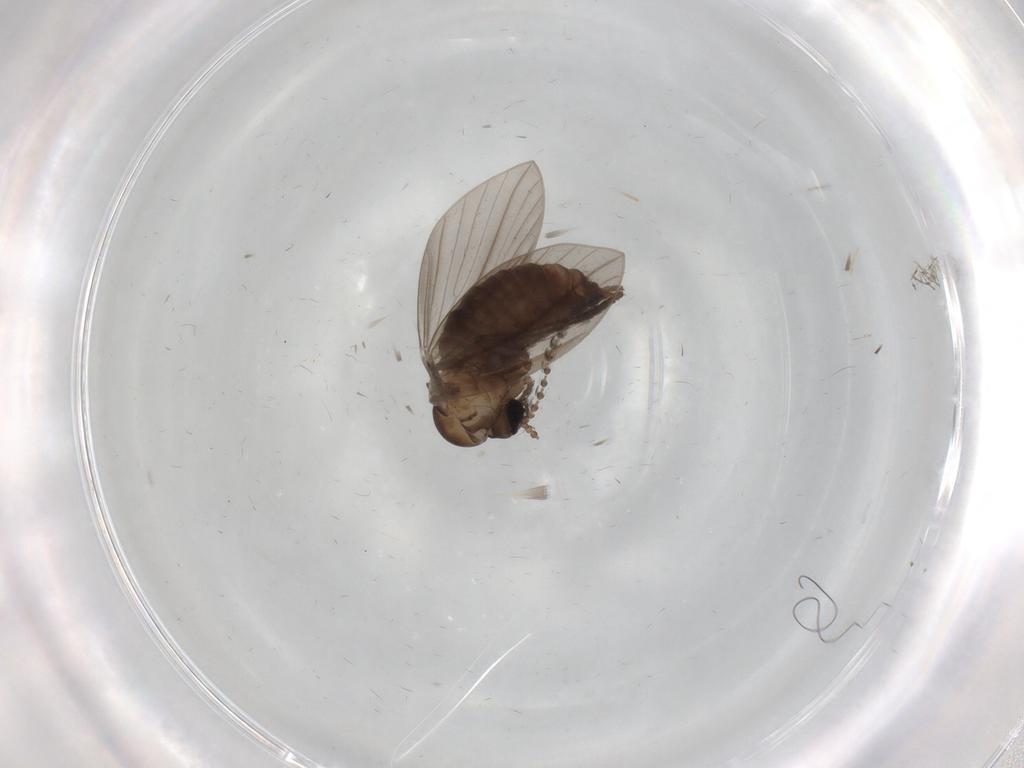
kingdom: Animalia
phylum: Arthropoda
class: Insecta
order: Diptera
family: Psychodidae
